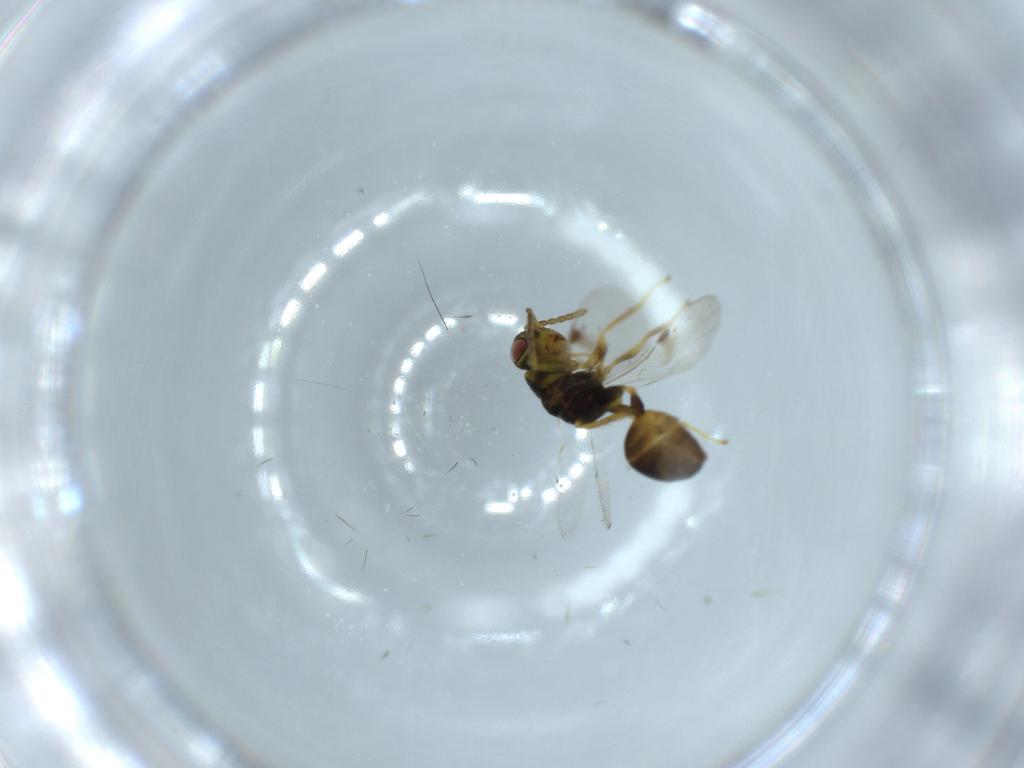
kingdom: Animalia
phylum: Arthropoda
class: Insecta
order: Hymenoptera
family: Eurytomidae
